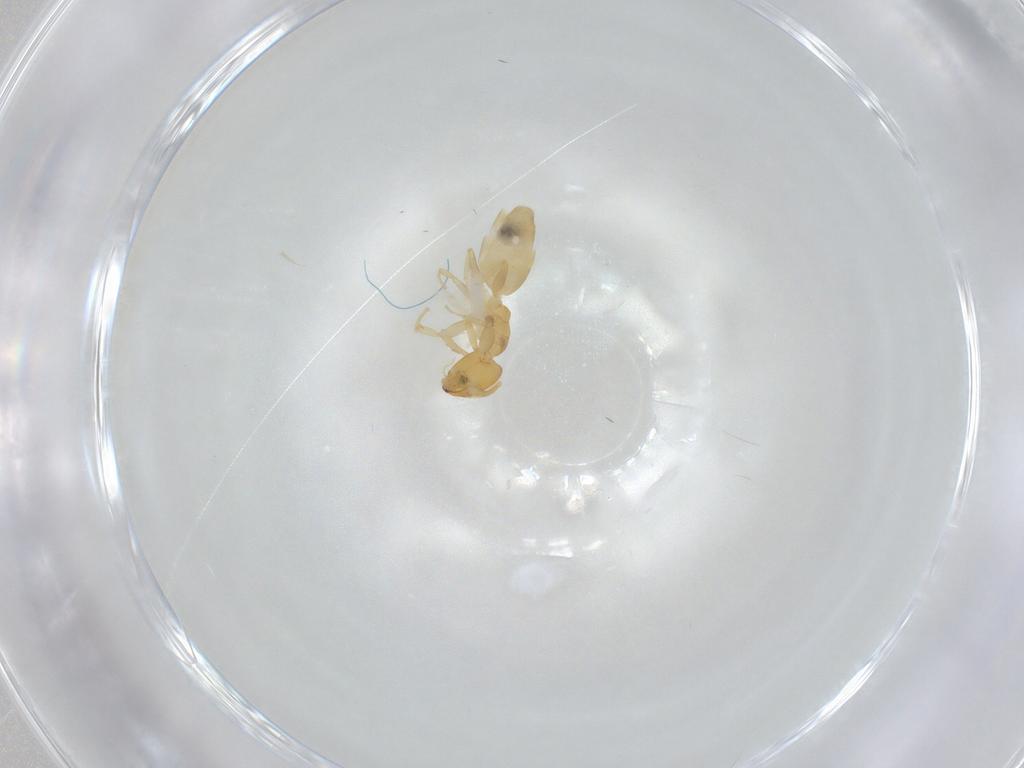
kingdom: Animalia
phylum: Arthropoda
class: Insecta
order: Hymenoptera
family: Formicidae
